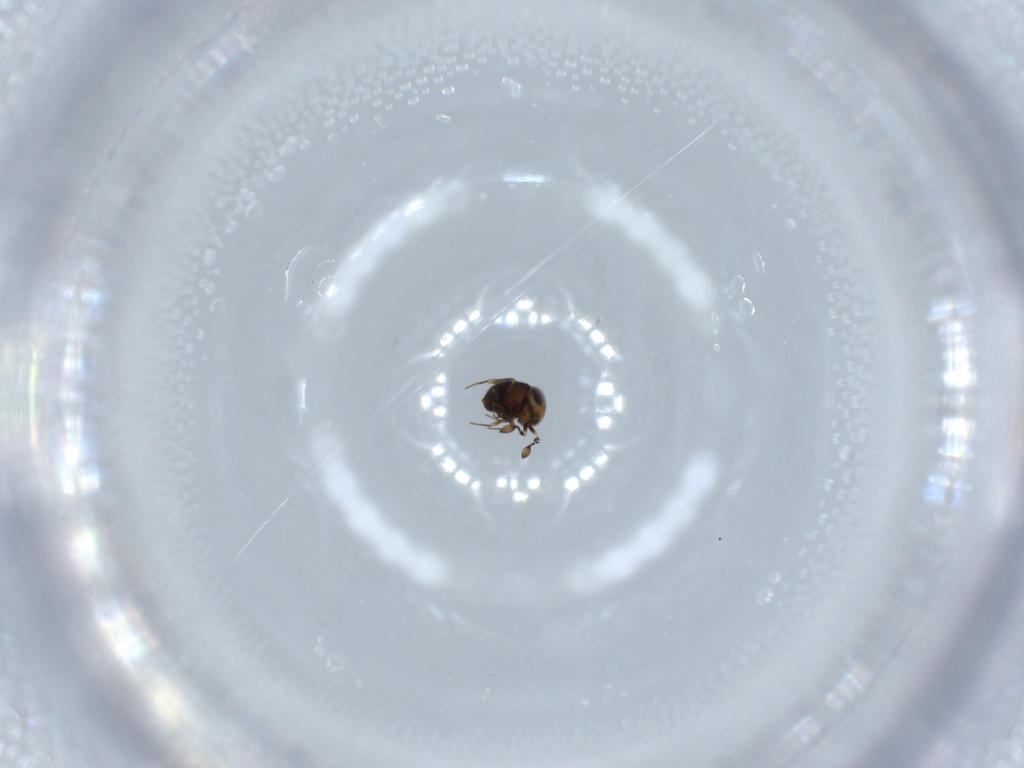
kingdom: Animalia
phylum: Arthropoda
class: Insecta
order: Hymenoptera
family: Scelionidae
